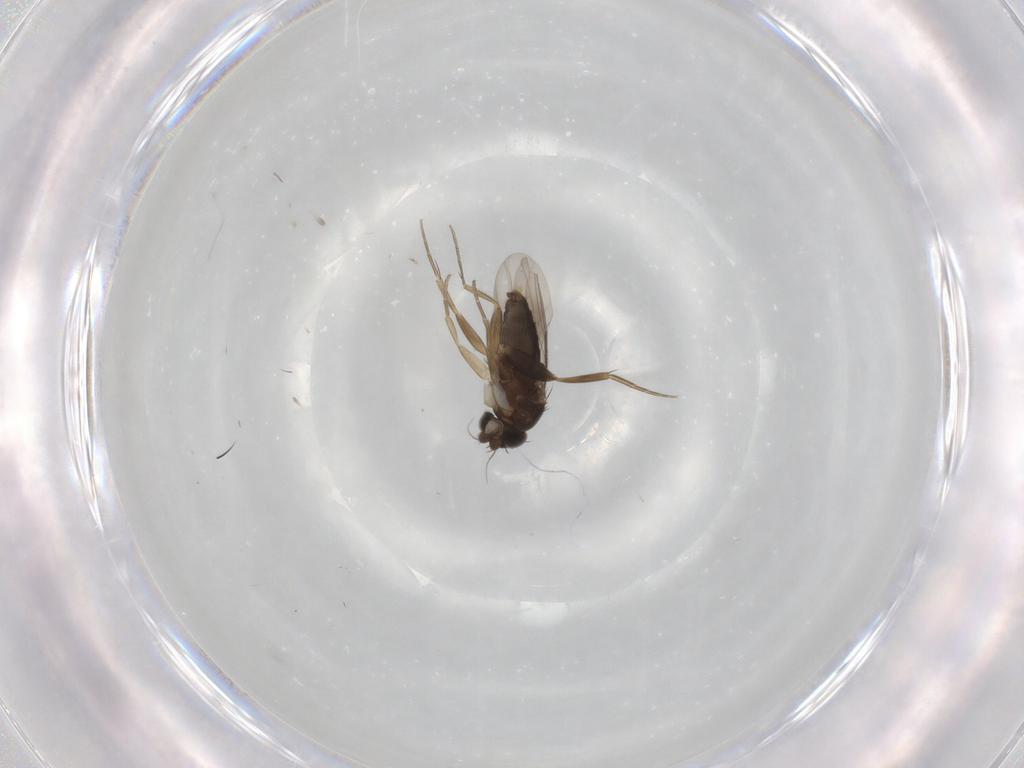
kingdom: Animalia
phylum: Arthropoda
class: Insecta
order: Diptera
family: Phoridae
